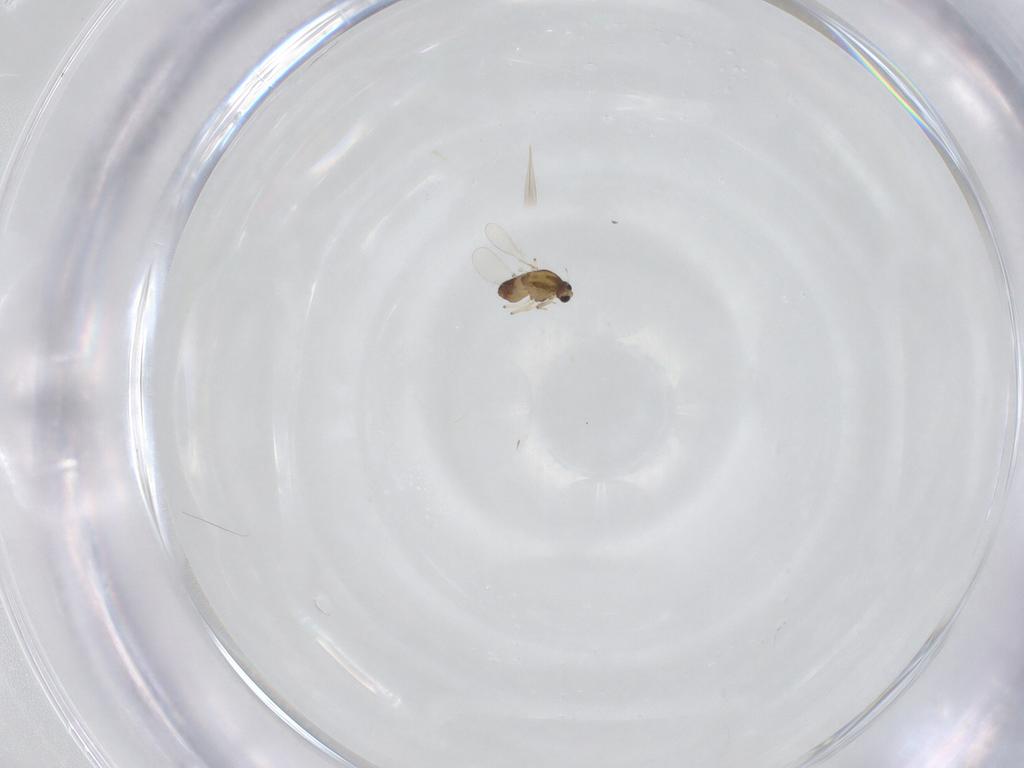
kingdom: Animalia
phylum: Arthropoda
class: Insecta
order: Diptera
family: Chironomidae
